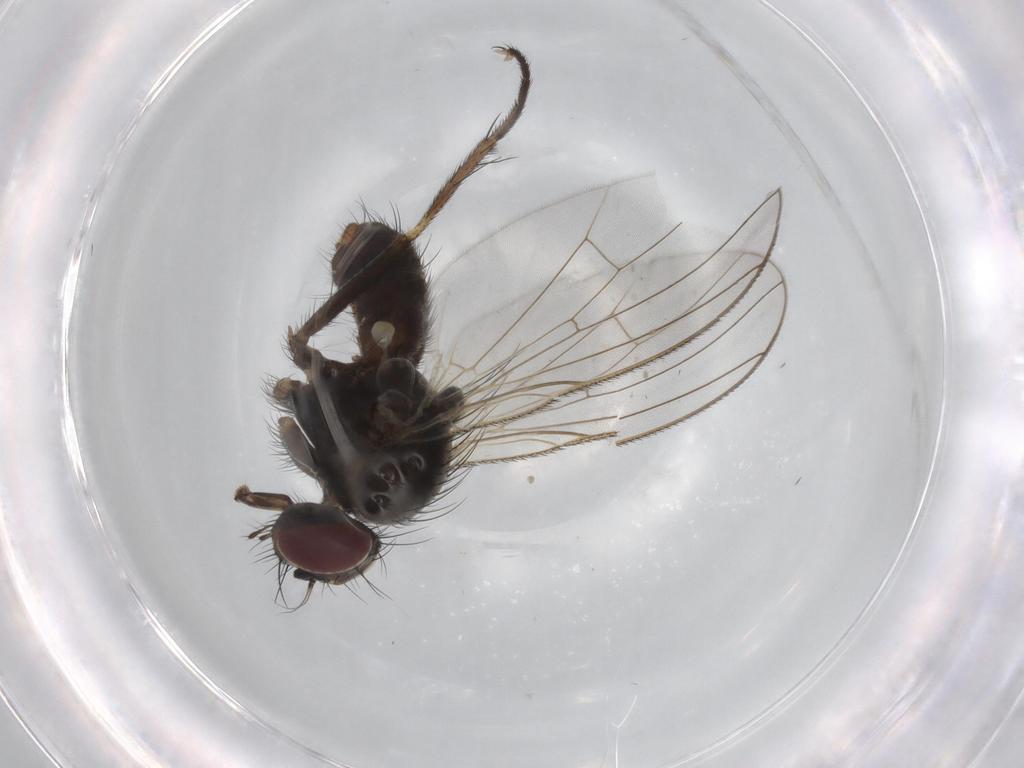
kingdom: Animalia
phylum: Arthropoda
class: Insecta
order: Diptera
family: Muscidae
